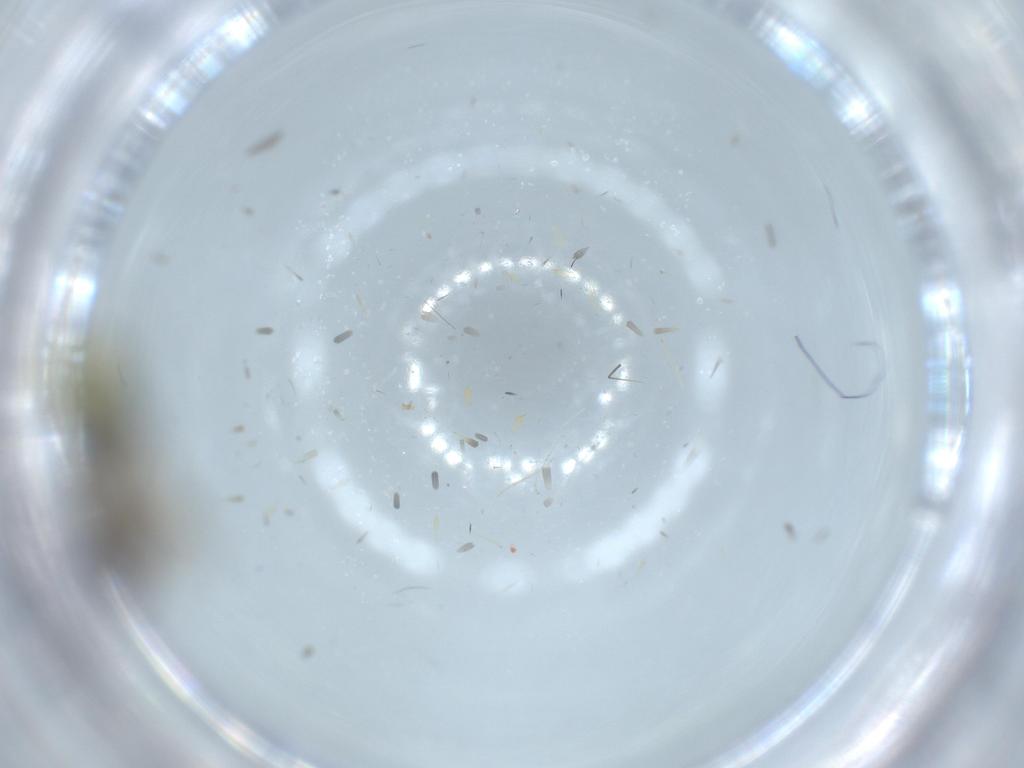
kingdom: Animalia
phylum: Arthropoda
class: Insecta
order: Hymenoptera
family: Pemphredonidae
